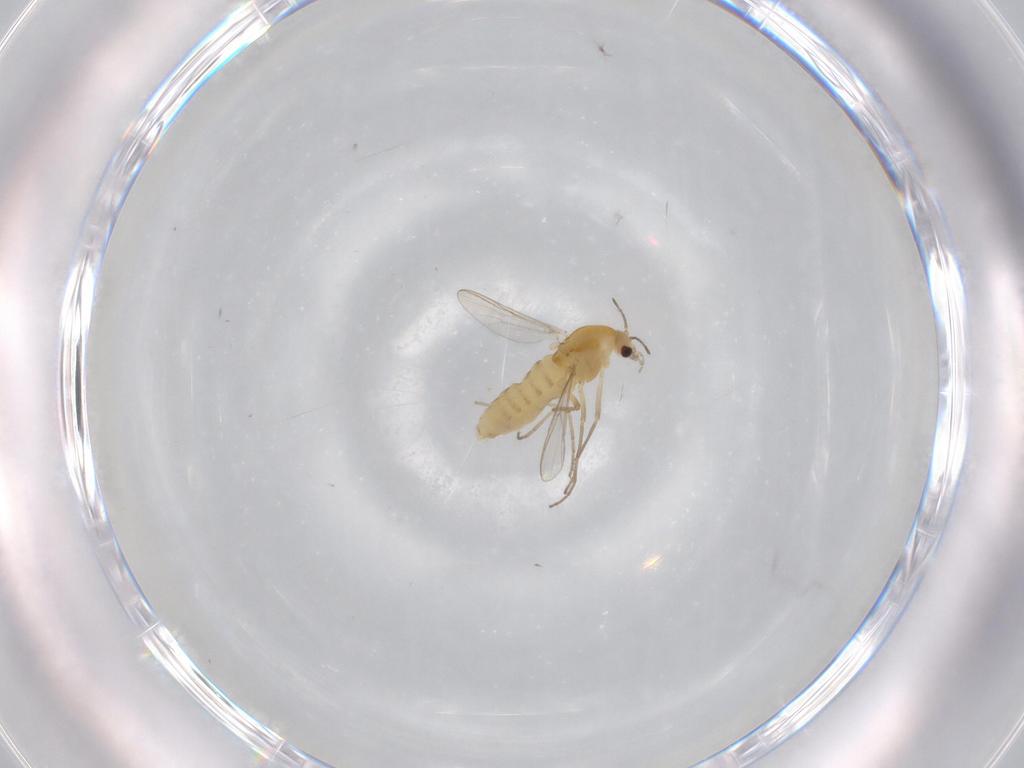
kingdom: Animalia
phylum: Arthropoda
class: Insecta
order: Diptera
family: Chironomidae
